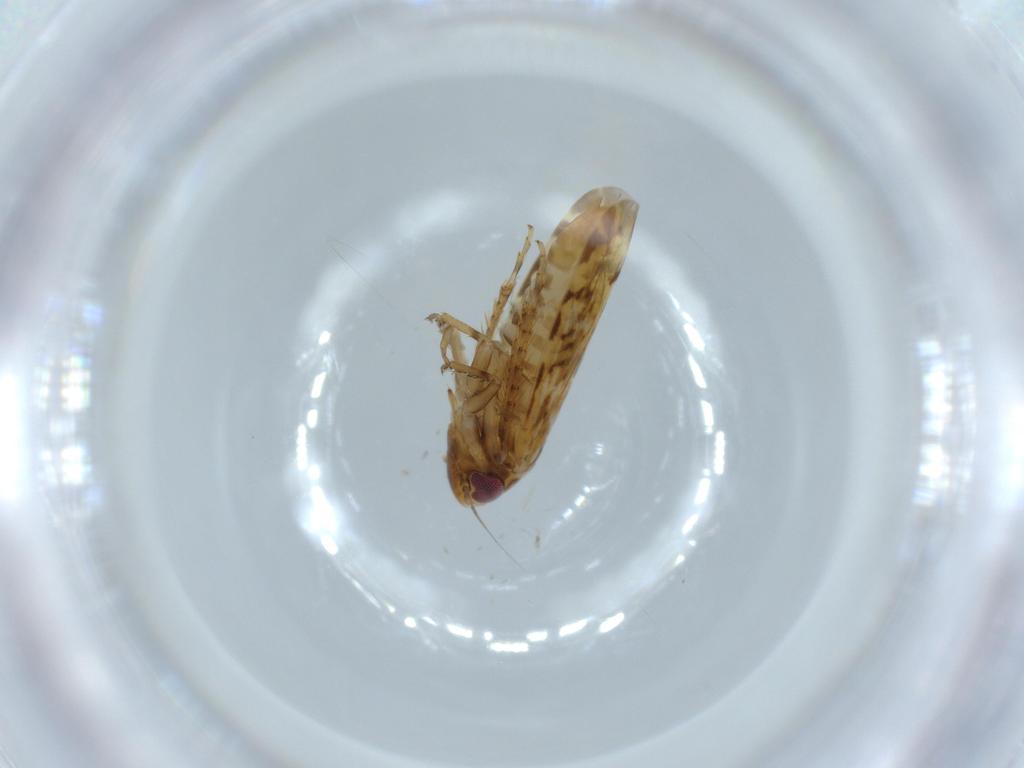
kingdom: Animalia
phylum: Arthropoda
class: Insecta
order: Hemiptera
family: Cicadellidae
